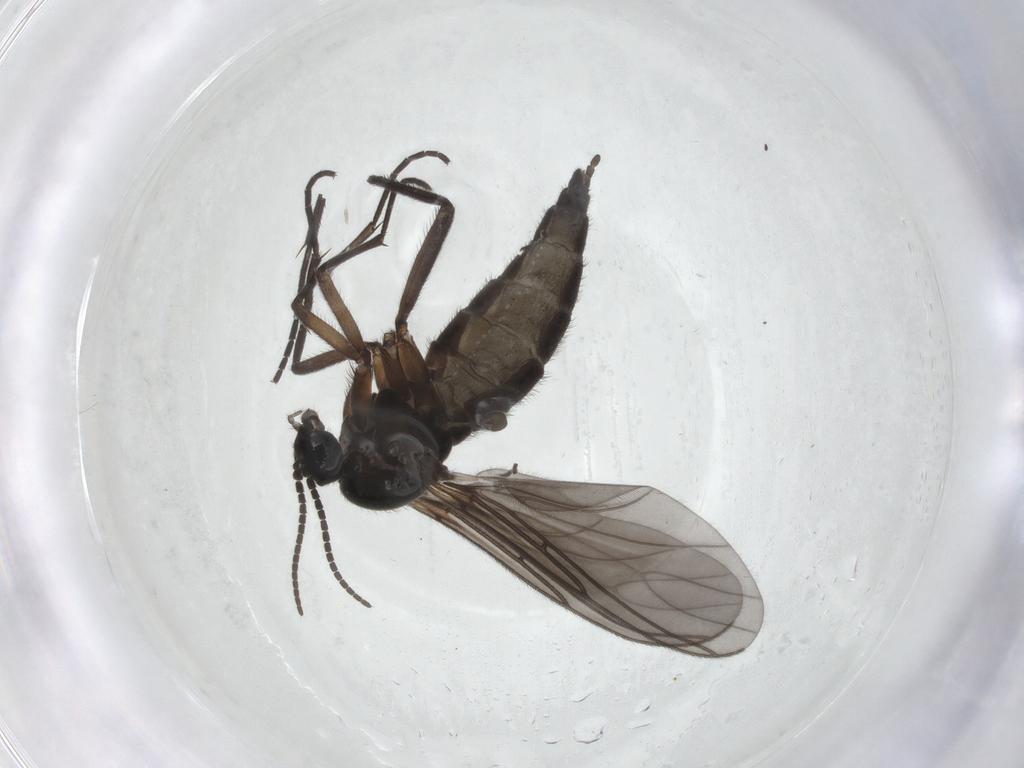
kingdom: Animalia
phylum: Arthropoda
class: Insecta
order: Diptera
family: Sciaridae
